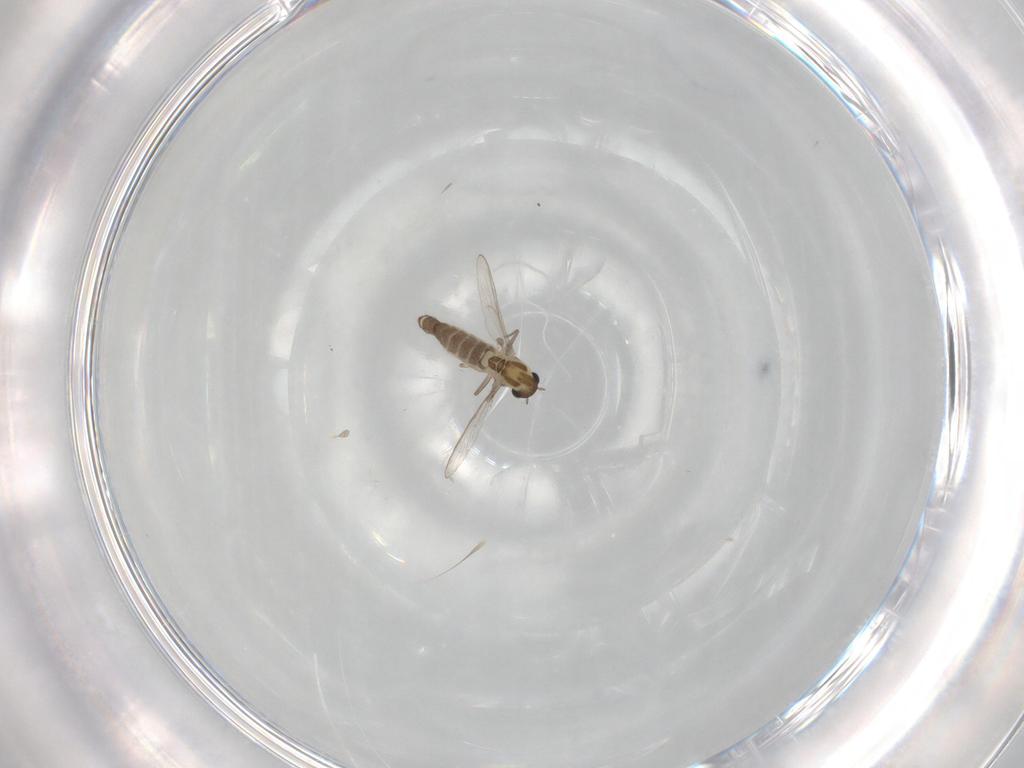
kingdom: Animalia
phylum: Arthropoda
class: Insecta
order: Diptera
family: Chironomidae
